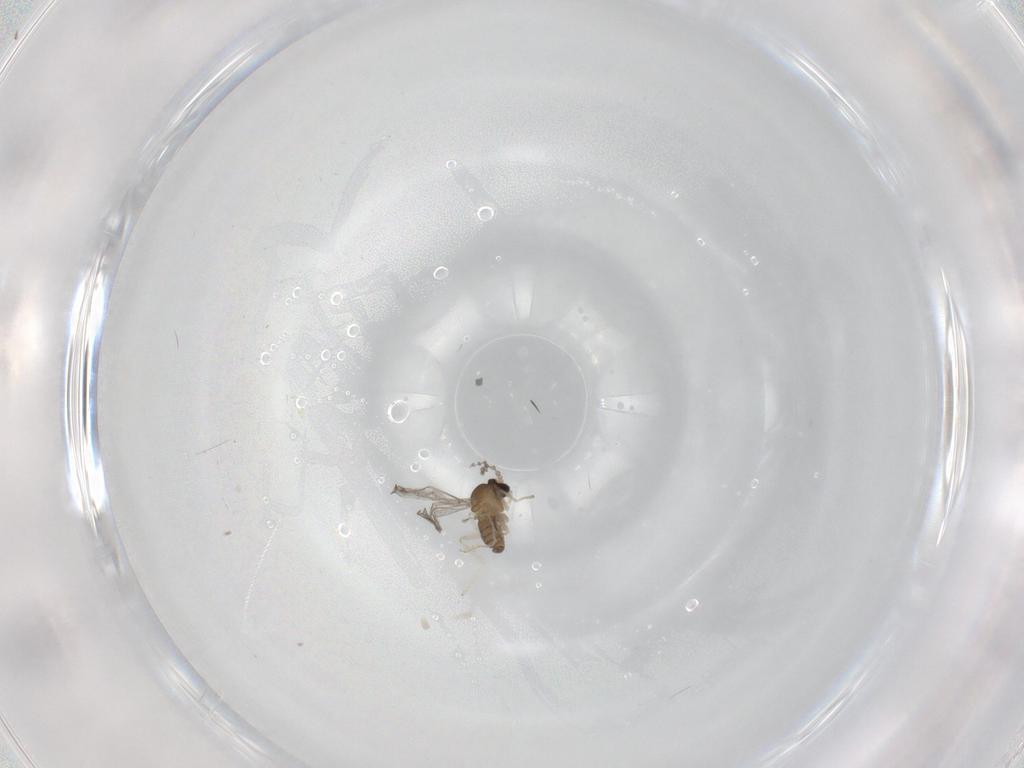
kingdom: Animalia
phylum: Arthropoda
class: Insecta
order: Diptera
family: Cecidomyiidae
